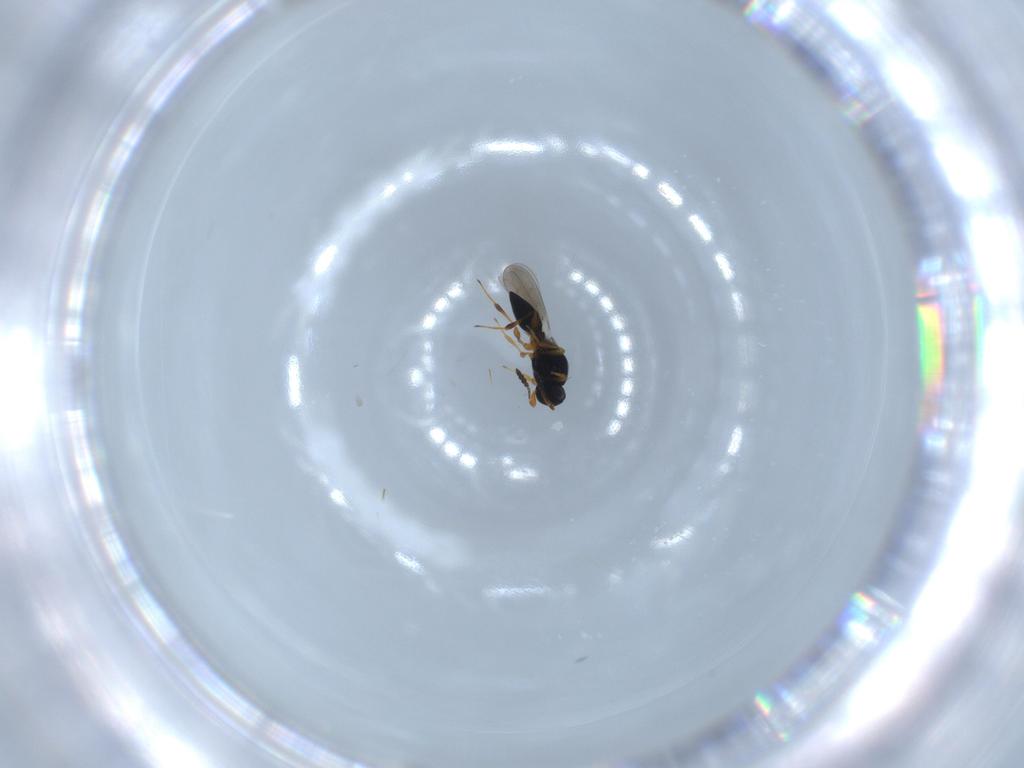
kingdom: Animalia
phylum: Arthropoda
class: Insecta
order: Hymenoptera
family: Platygastridae
